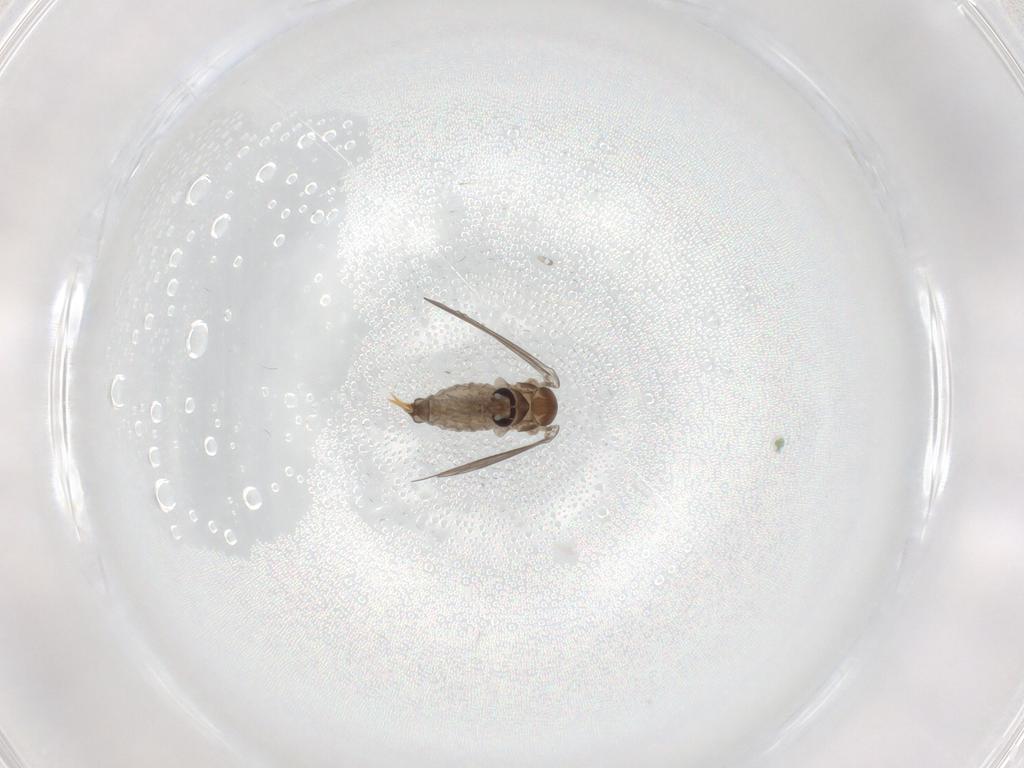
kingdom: Animalia
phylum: Arthropoda
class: Insecta
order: Diptera
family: Psychodidae
